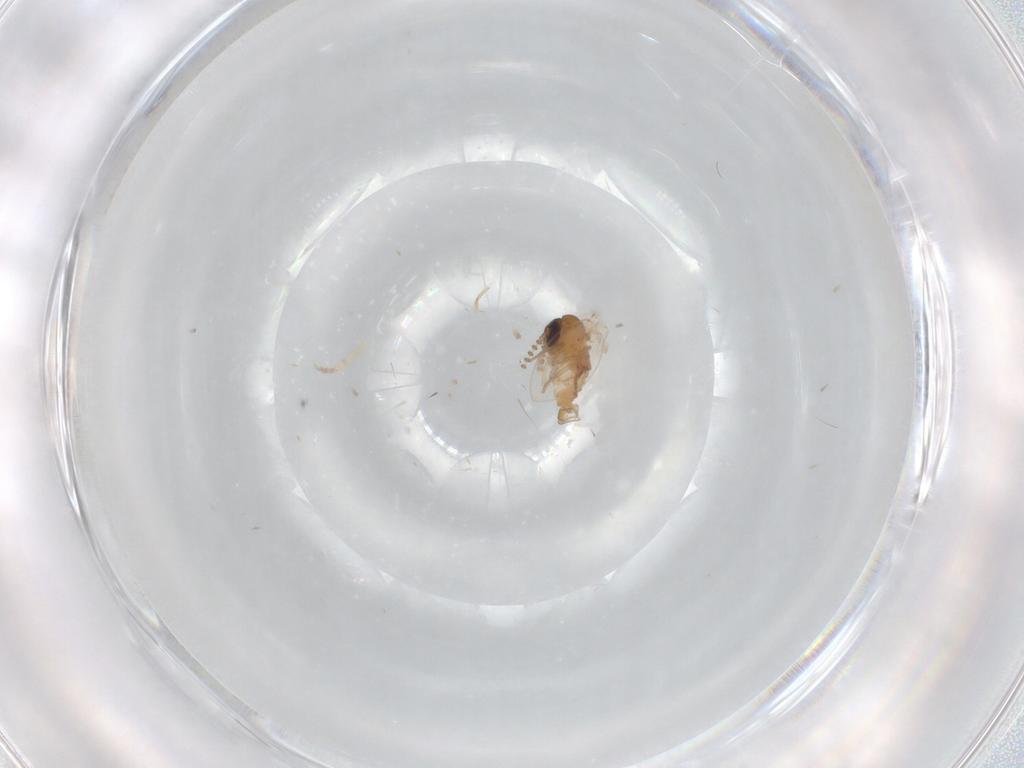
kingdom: Animalia
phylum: Arthropoda
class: Insecta
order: Diptera
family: Psychodidae
